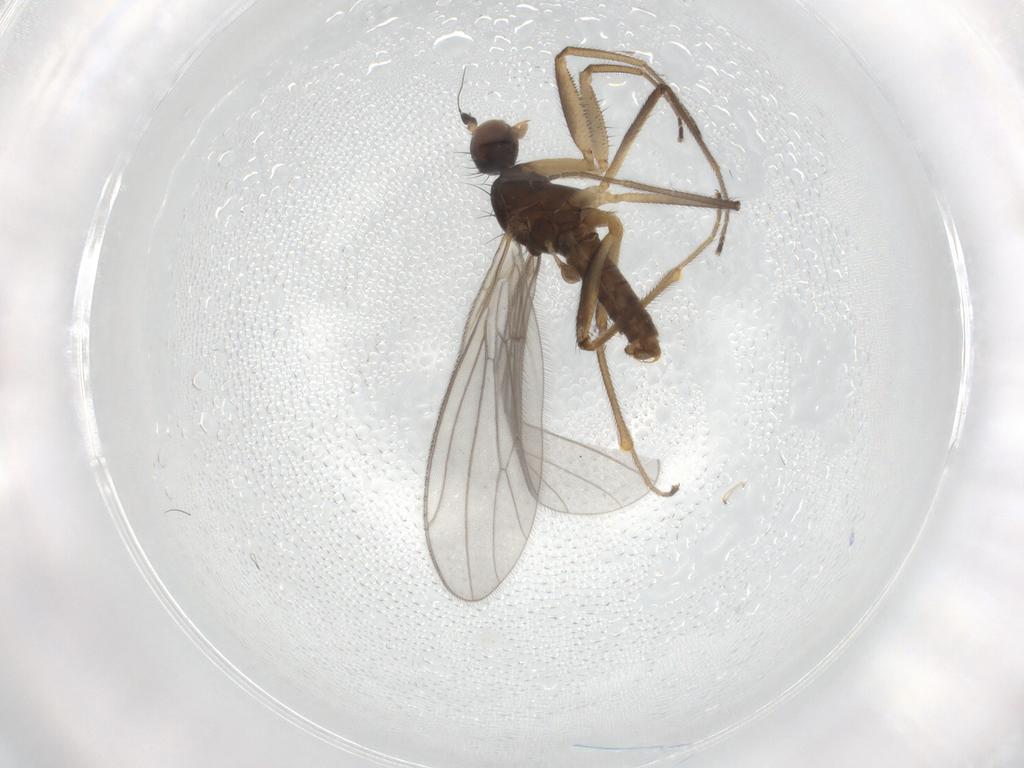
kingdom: Animalia
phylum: Arthropoda
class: Insecta
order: Diptera
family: Empididae
